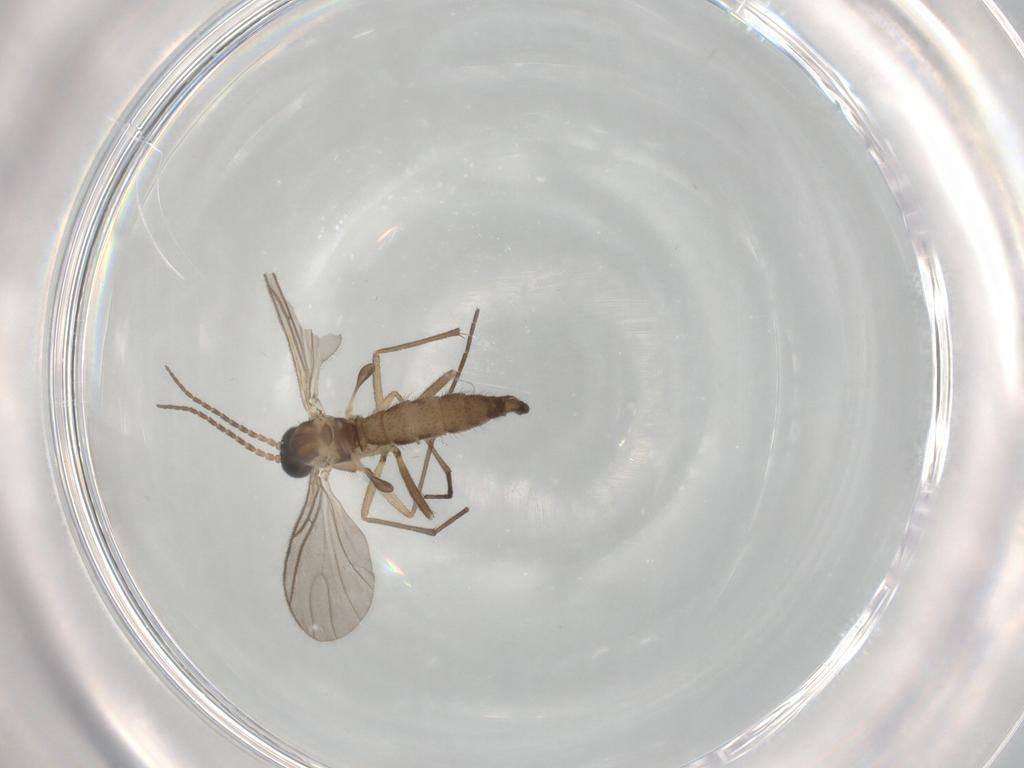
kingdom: Animalia
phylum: Arthropoda
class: Insecta
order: Diptera
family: Sciaridae
